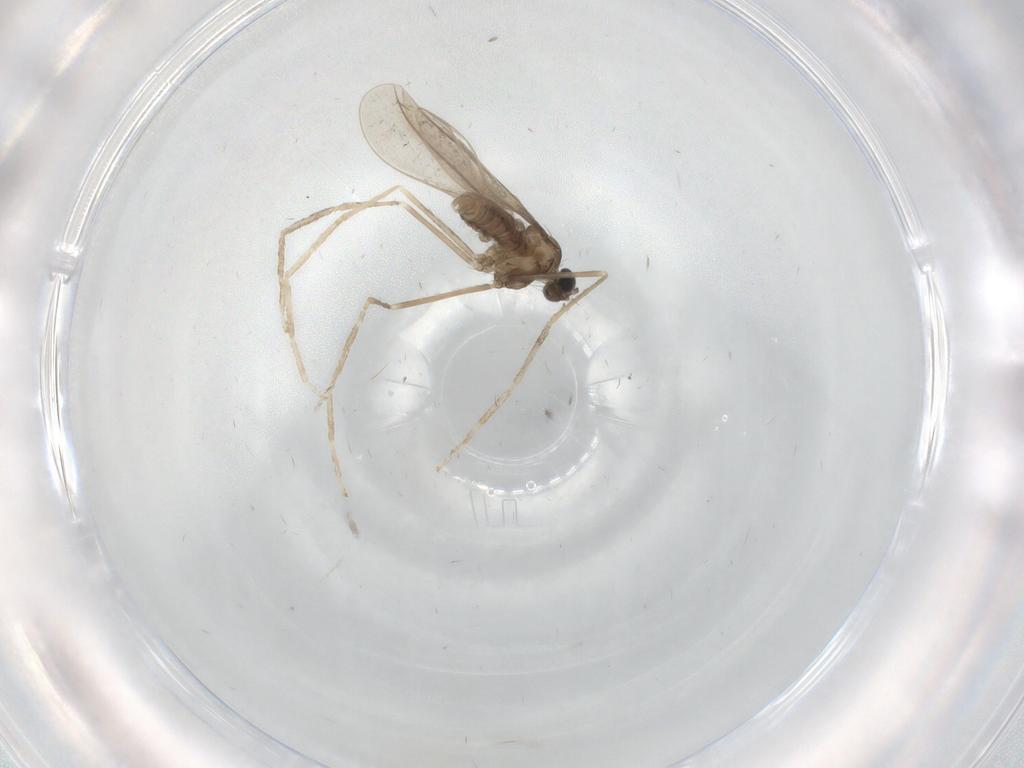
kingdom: Animalia
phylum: Arthropoda
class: Insecta
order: Diptera
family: Cecidomyiidae
